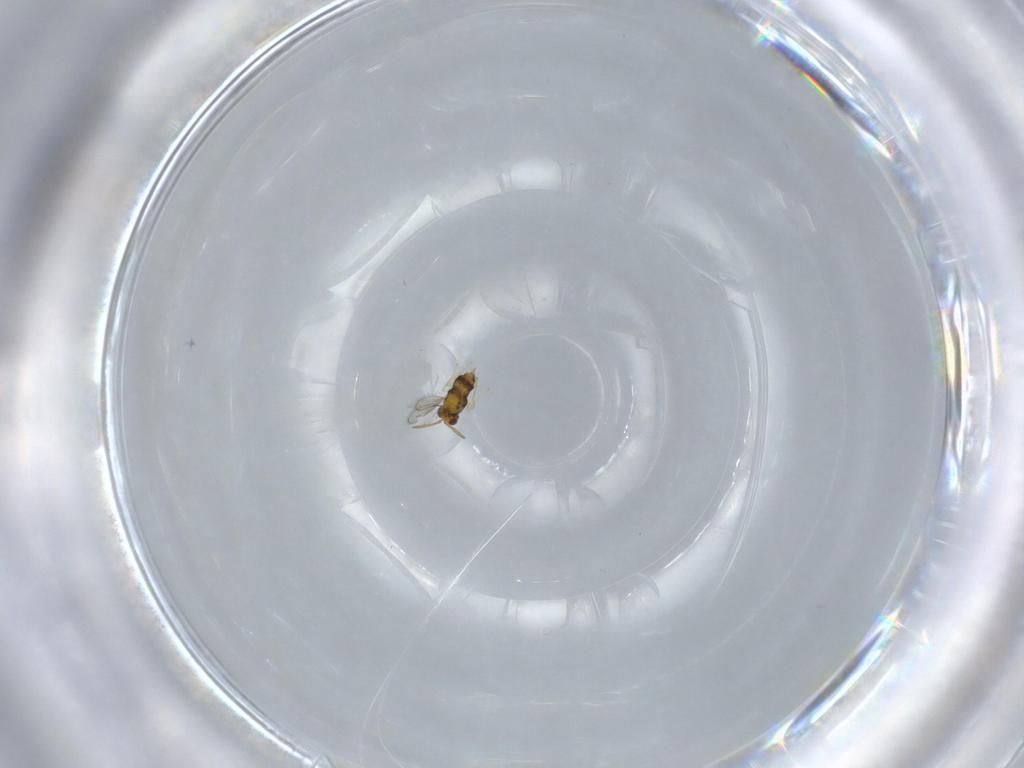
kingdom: Animalia
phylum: Arthropoda
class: Insecta
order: Hymenoptera
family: Aphelinidae
